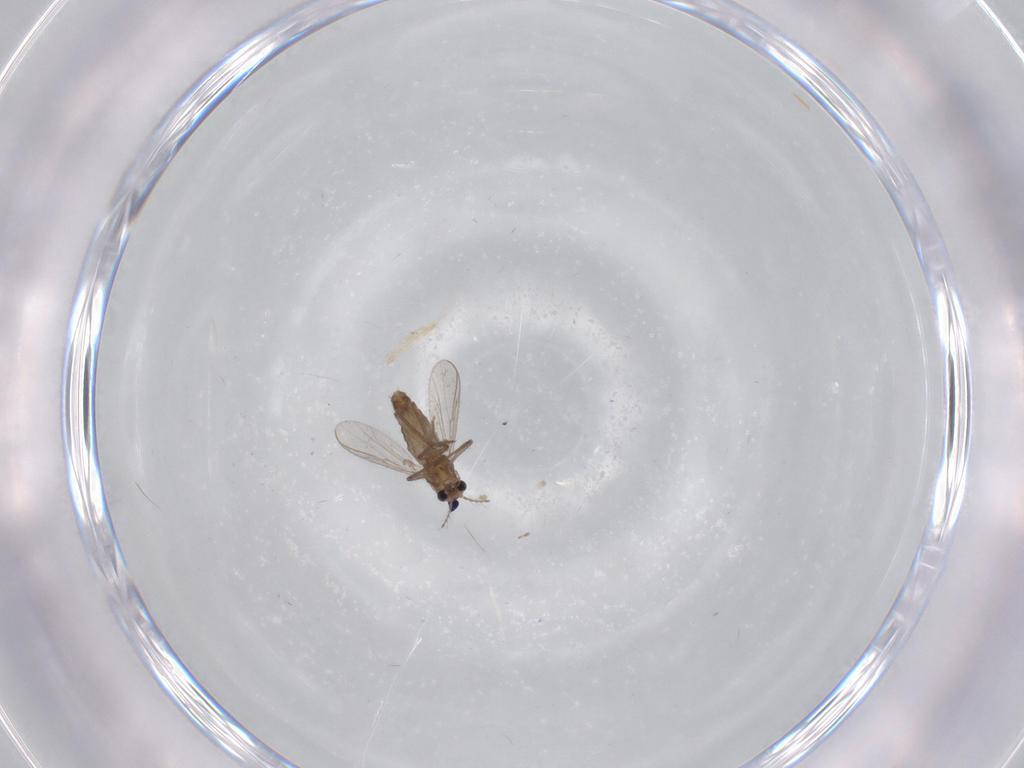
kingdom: Animalia
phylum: Arthropoda
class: Insecta
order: Diptera
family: Chironomidae
